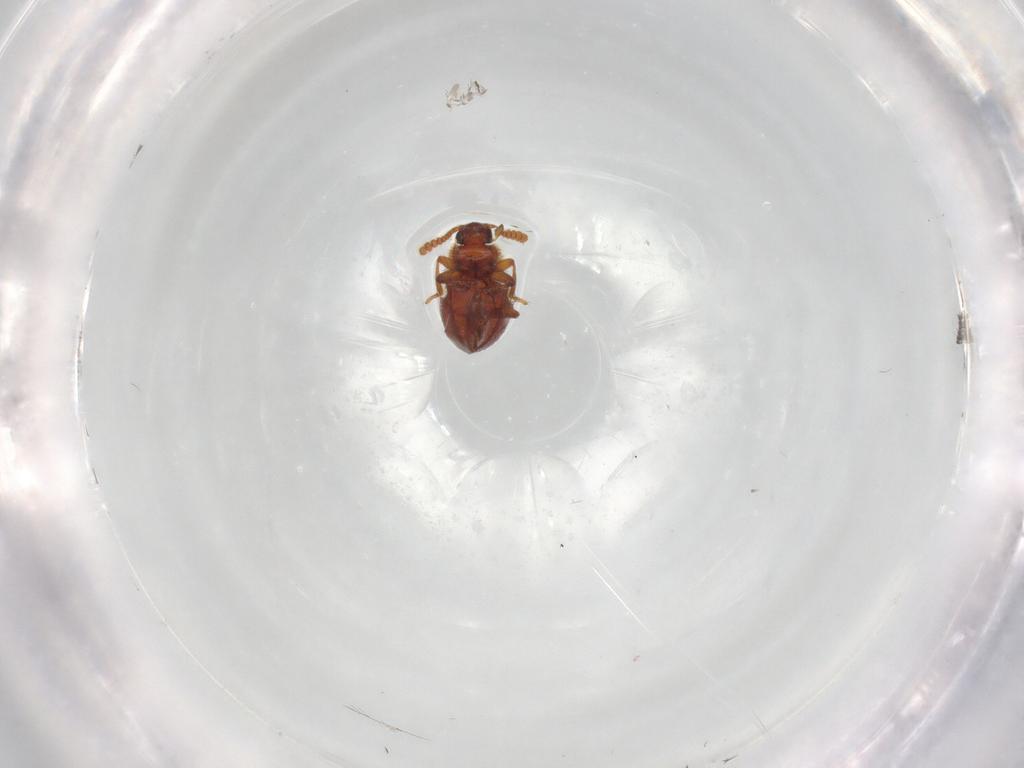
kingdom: Animalia
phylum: Arthropoda
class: Insecta
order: Coleoptera
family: Staphylinidae
